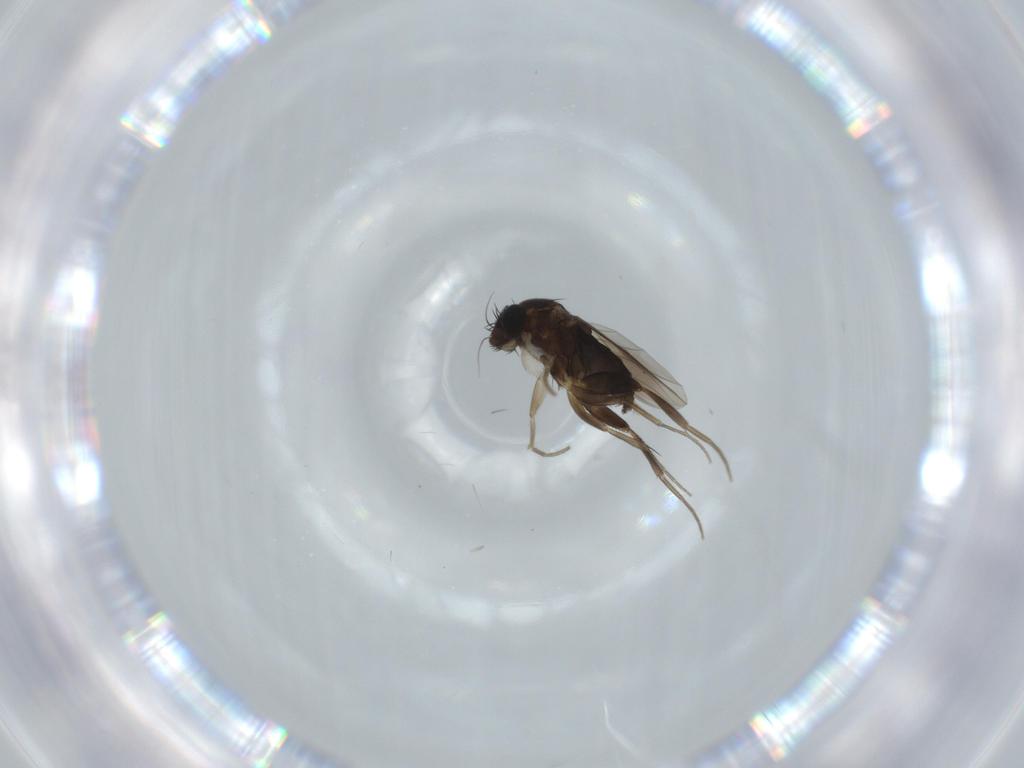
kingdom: Animalia
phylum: Arthropoda
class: Insecta
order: Diptera
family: Phoridae
